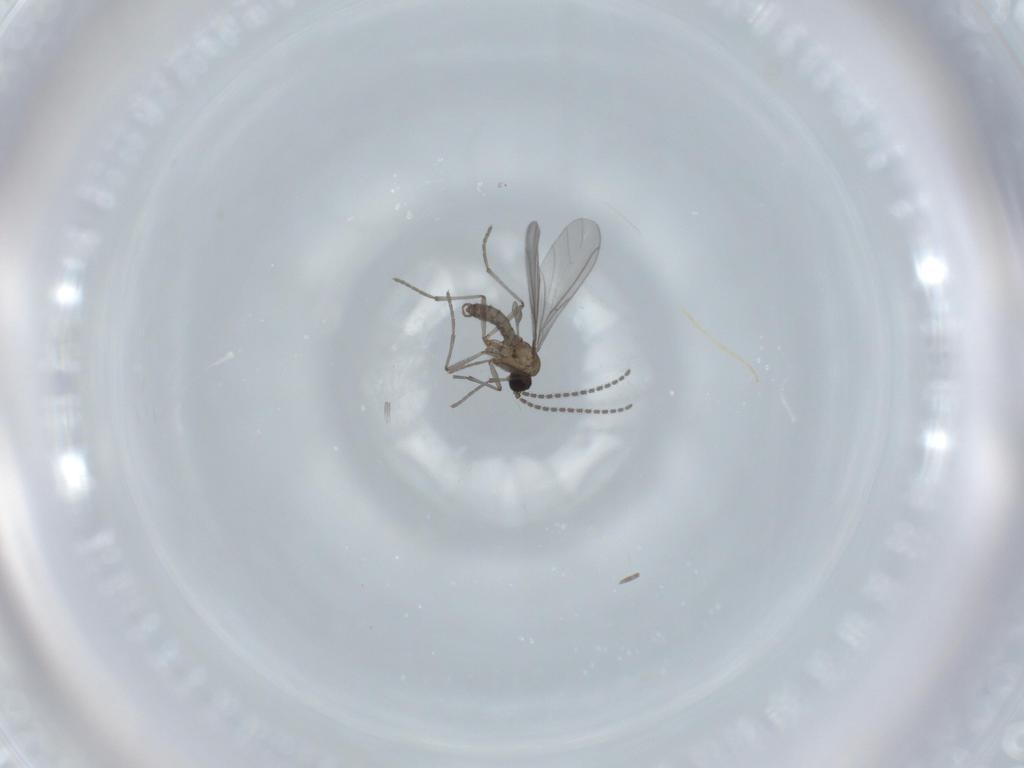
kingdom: Animalia
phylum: Arthropoda
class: Insecta
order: Diptera
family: Sciaridae
